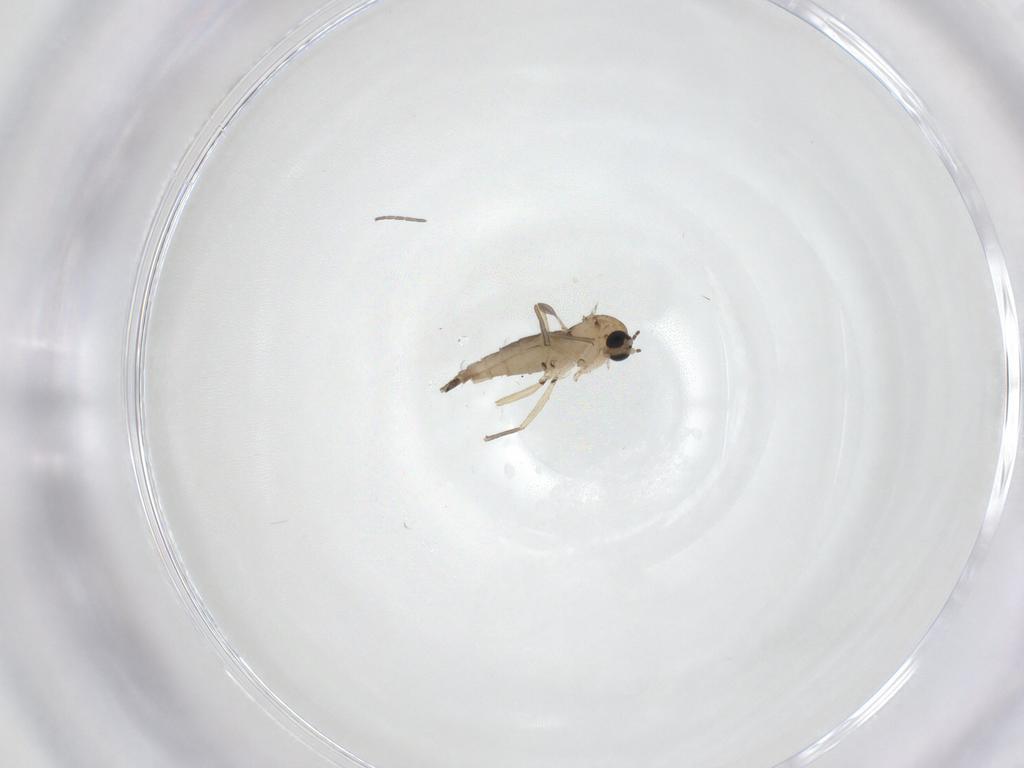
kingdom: Animalia
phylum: Arthropoda
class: Insecta
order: Diptera
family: Sciaridae
